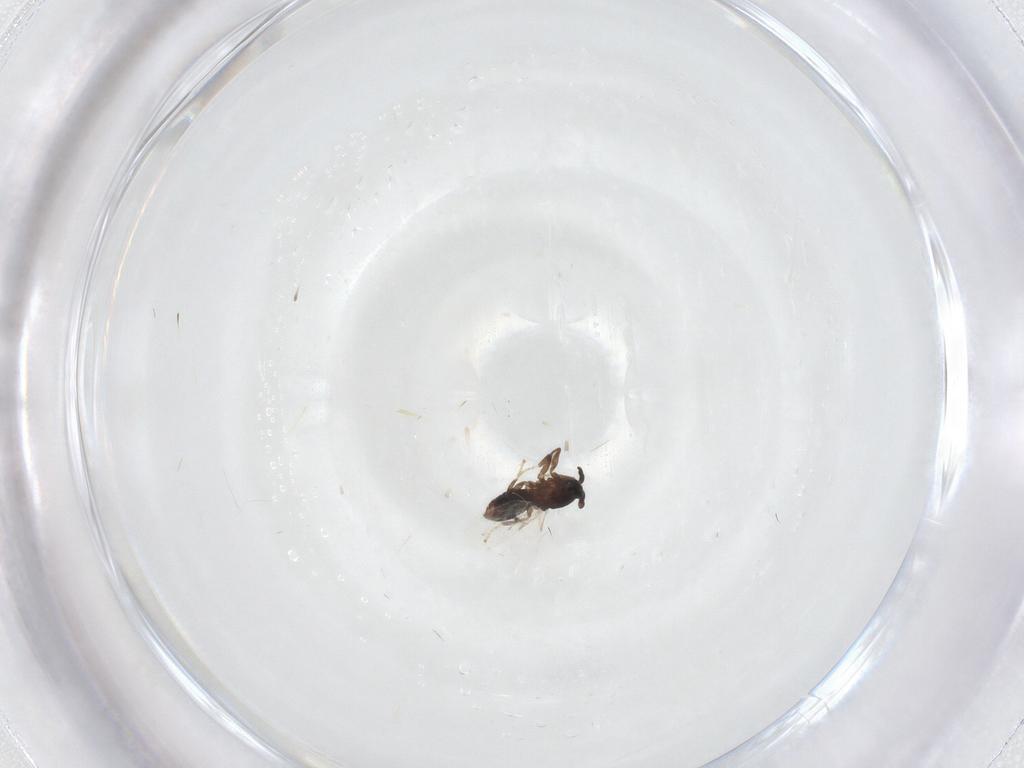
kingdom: Animalia
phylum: Arthropoda
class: Insecta
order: Diptera
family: Scatopsidae
